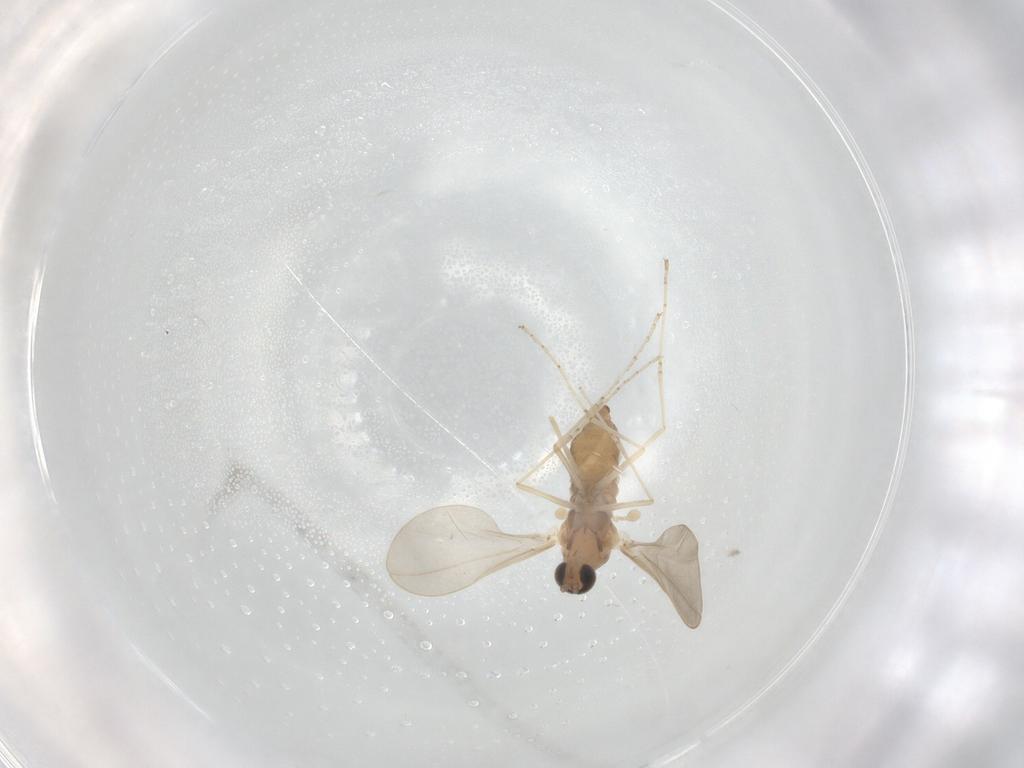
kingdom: Animalia
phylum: Arthropoda
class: Insecta
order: Diptera
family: Cecidomyiidae
